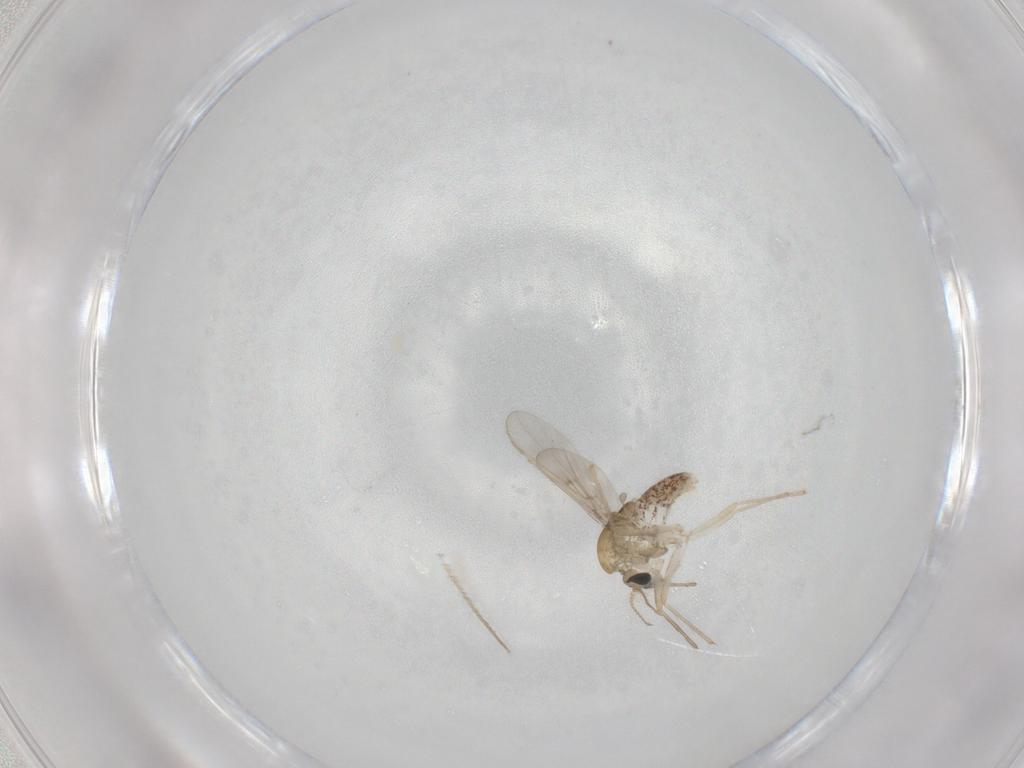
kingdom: Animalia
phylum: Arthropoda
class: Insecta
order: Diptera
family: Chironomidae
